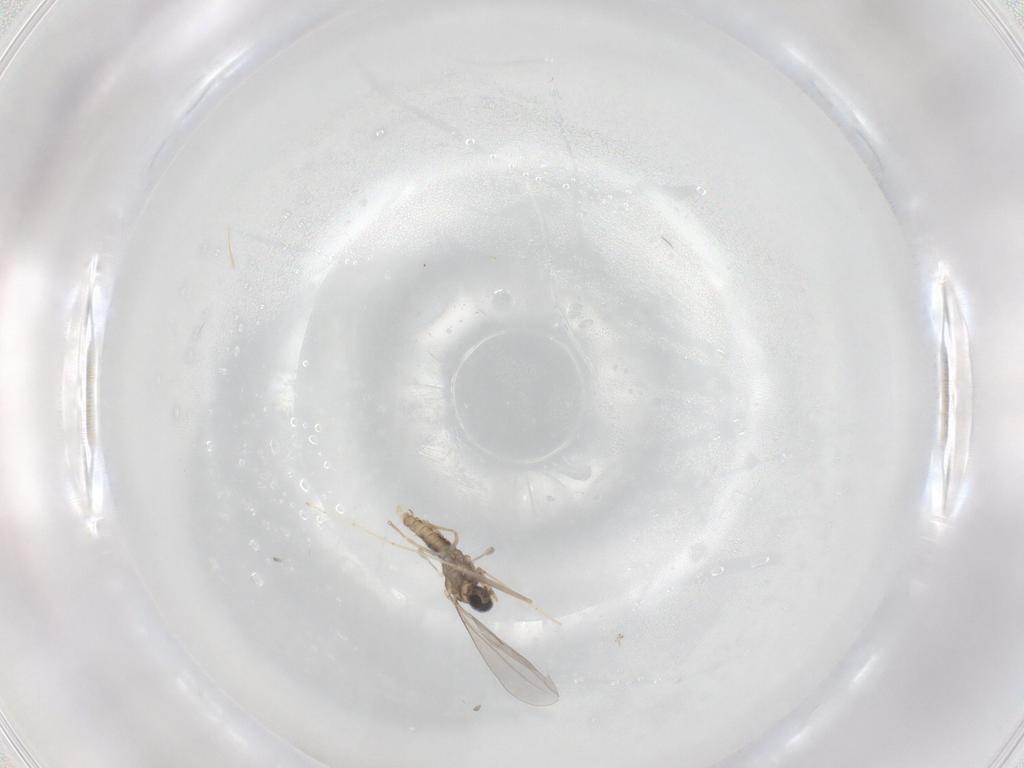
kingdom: Animalia
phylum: Arthropoda
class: Insecta
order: Diptera
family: Cecidomyiidae
